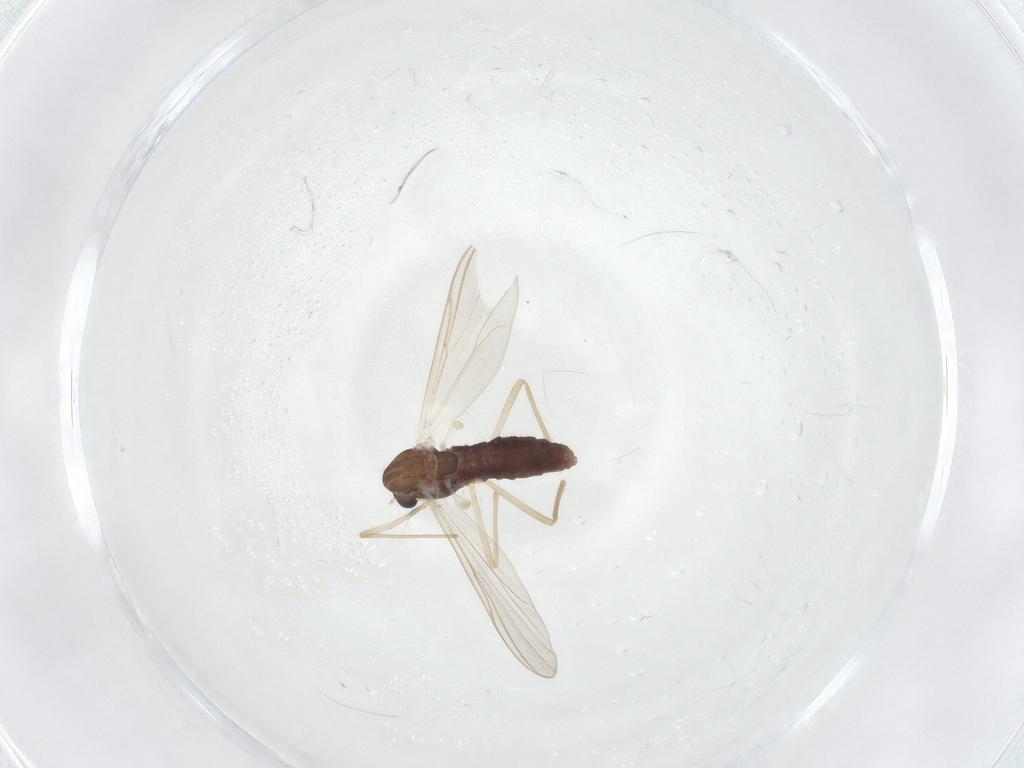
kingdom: Animalia
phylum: Arthropoda
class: Insecta
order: Diptera
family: Chironomidae
